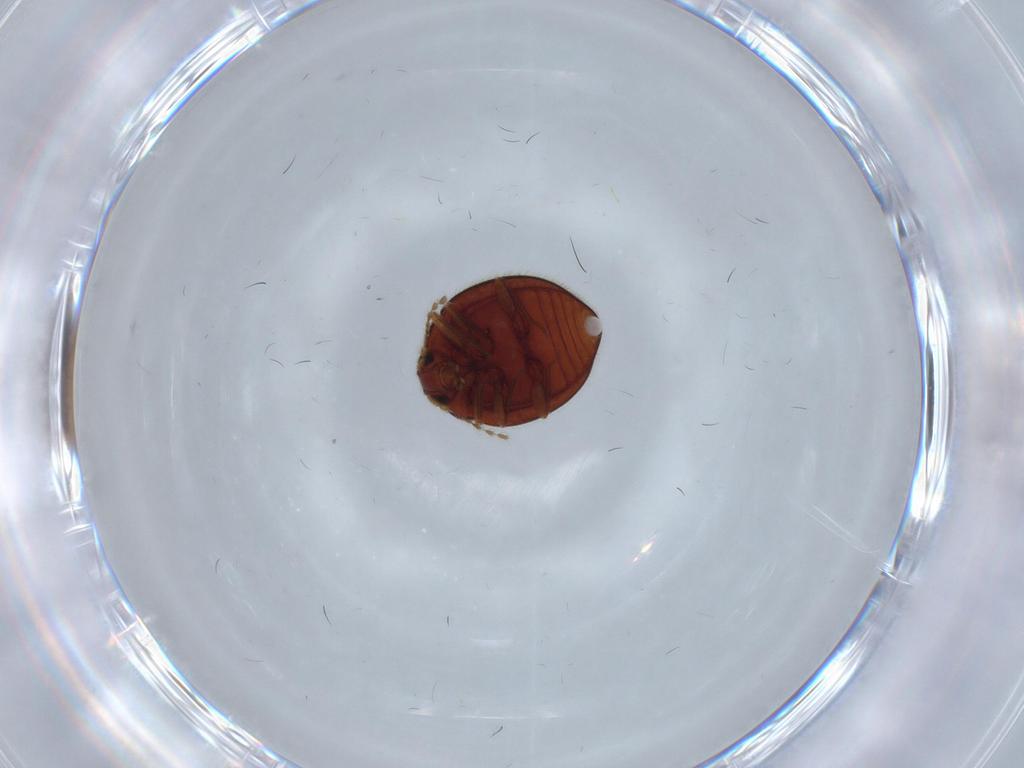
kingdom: Animalia
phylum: Arthropoda
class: Insecta
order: Coleoptera
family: Anamorphidae
